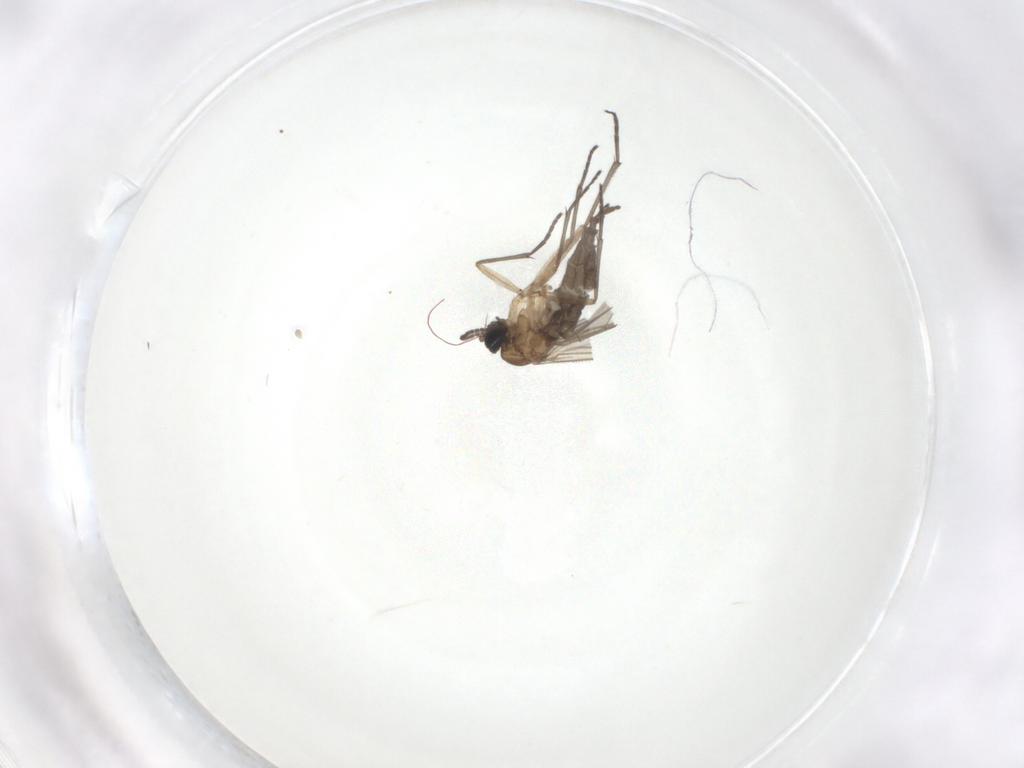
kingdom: Animalia
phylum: Arthropoda
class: Insecta
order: Diptera
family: Sciaridae
